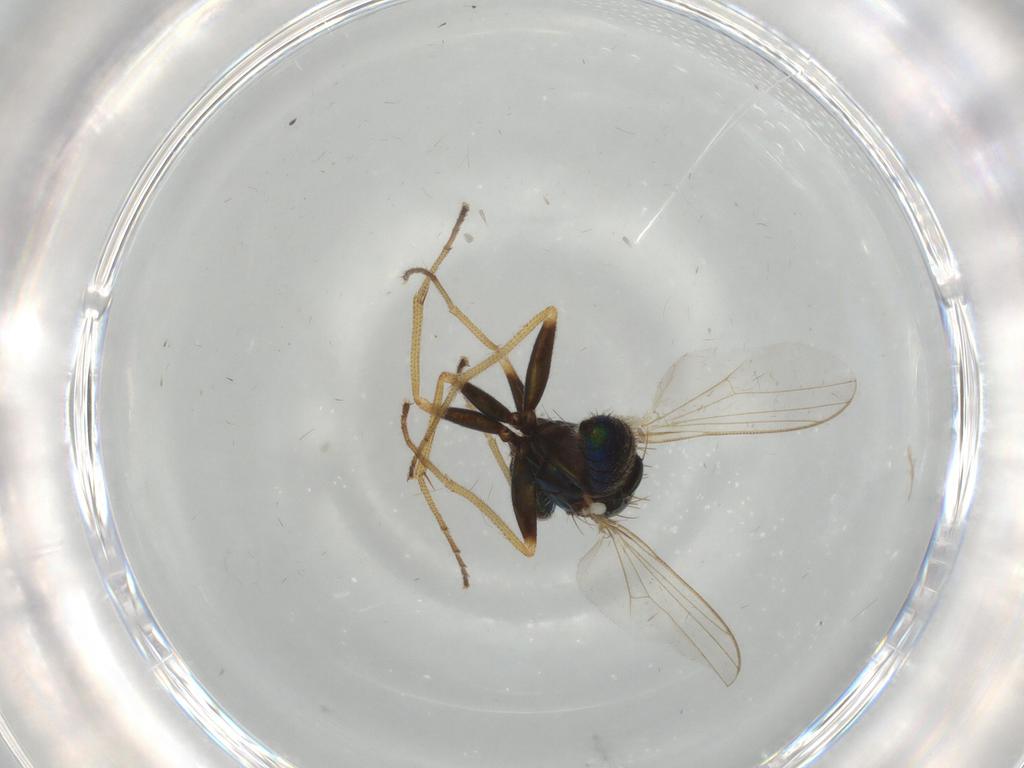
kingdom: Animalia
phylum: Arthropoda
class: Insecta
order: Diptera
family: Dolichopodidae
